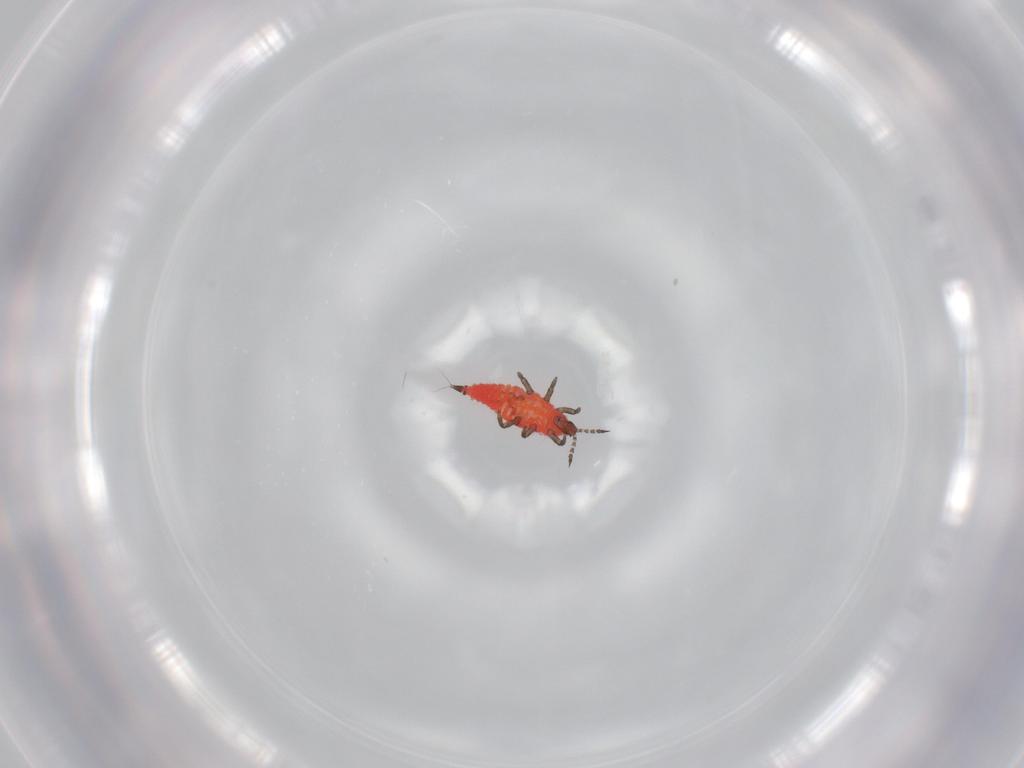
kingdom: Animalia
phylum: Arthropoda
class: Insecta
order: Thysanoptera
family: Phlaeothripidae
